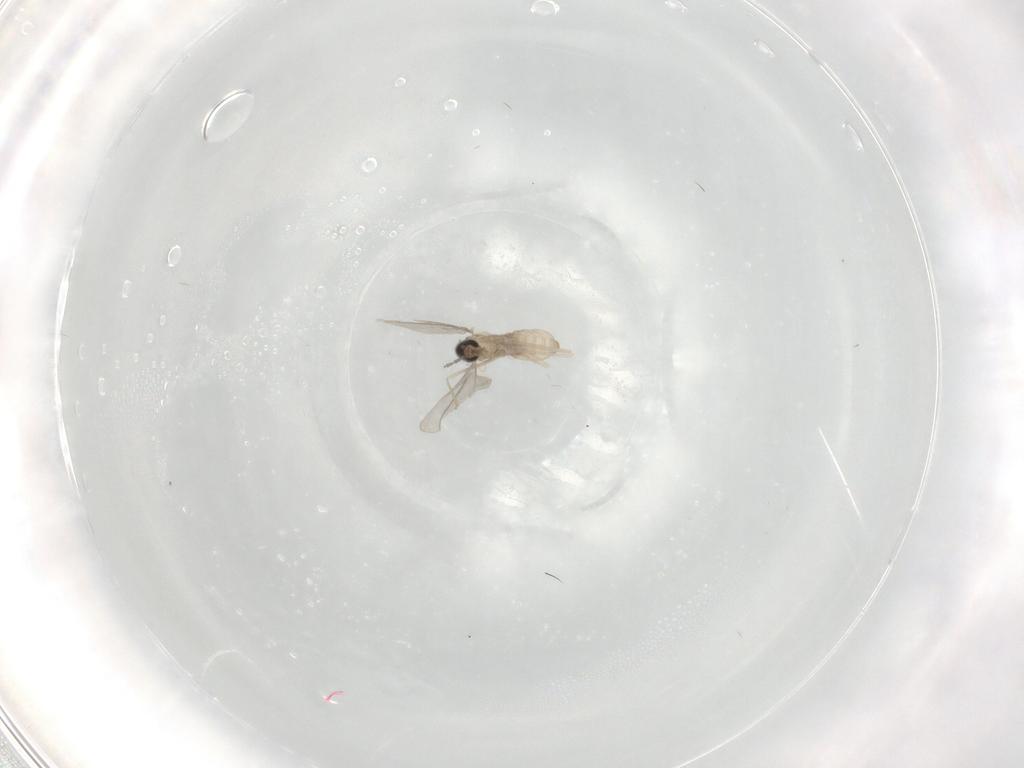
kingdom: Animalia
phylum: Arthropoda
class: Insecta
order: Diptera
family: Cecidomyiidae
